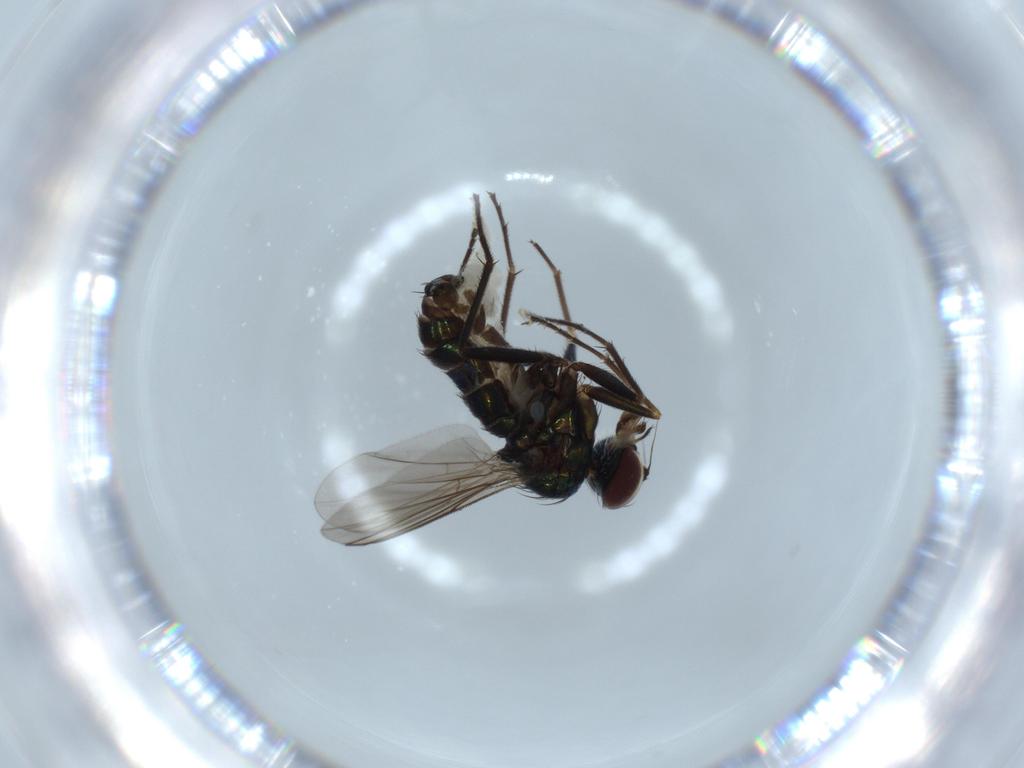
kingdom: Animalia
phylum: Arthropoda
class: Insecta
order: Diptera
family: Dolichopodidae
